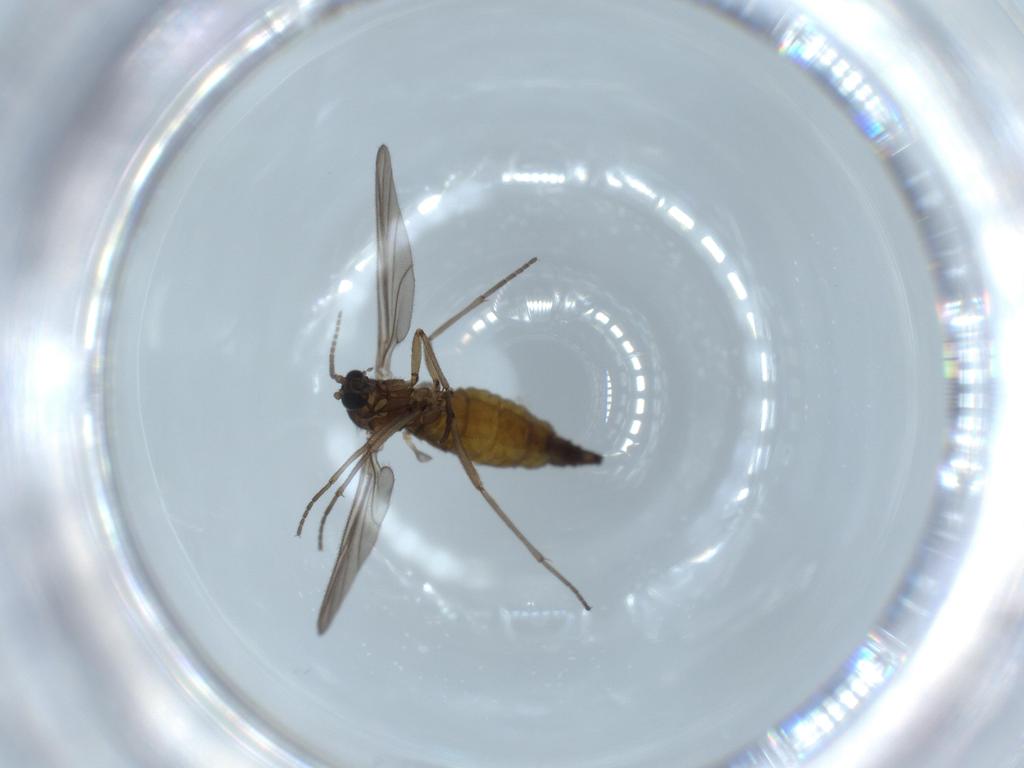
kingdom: Animalia
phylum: Arthropoda
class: Insecta
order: Diptera
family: Sciaridae
